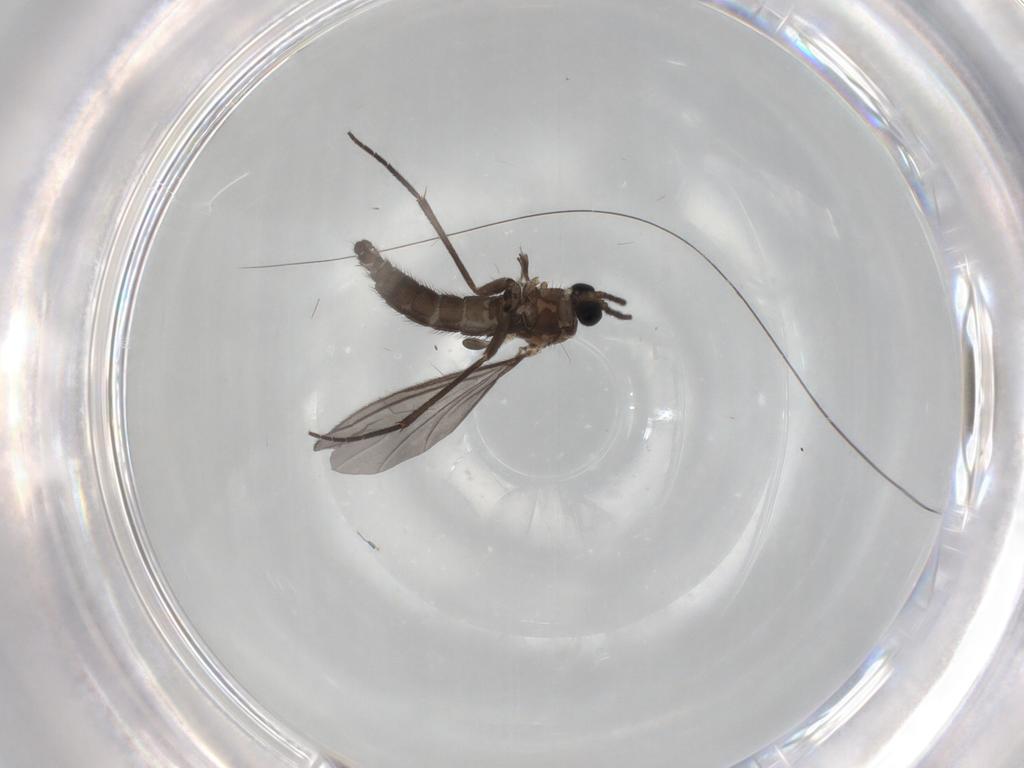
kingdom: Animalia
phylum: Arthropoda
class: Insecta
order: Diptera
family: Sciaridae
